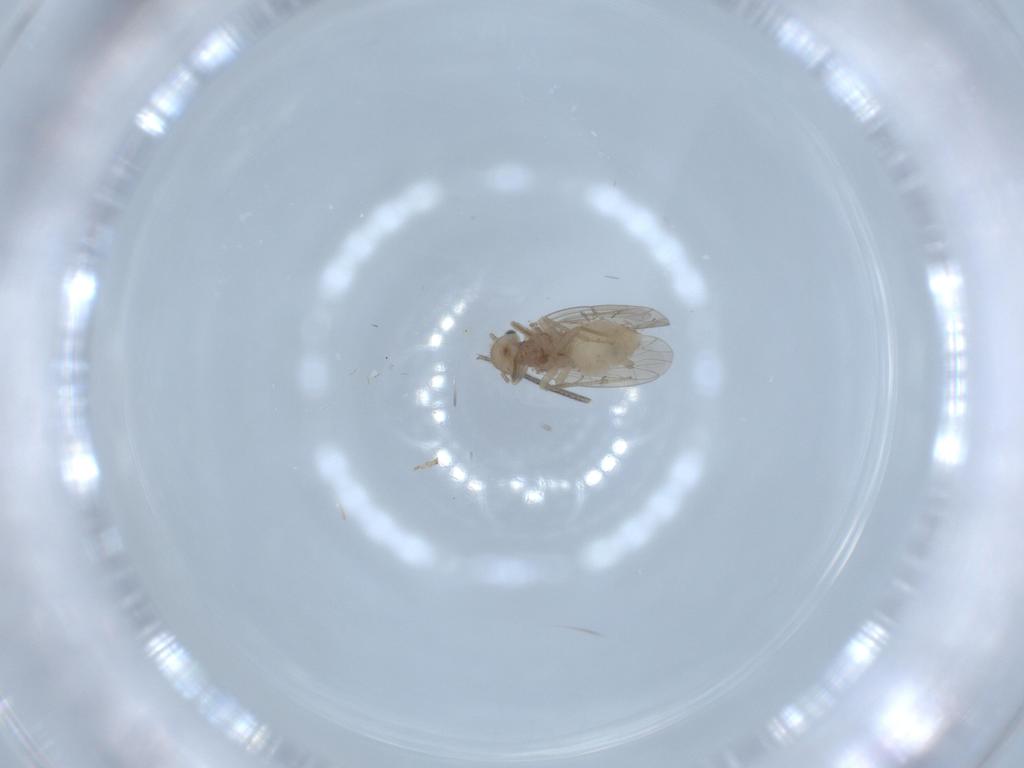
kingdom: Animalia
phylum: Arthropoda
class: Insecta
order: Psocodea
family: Ectopsocidae
